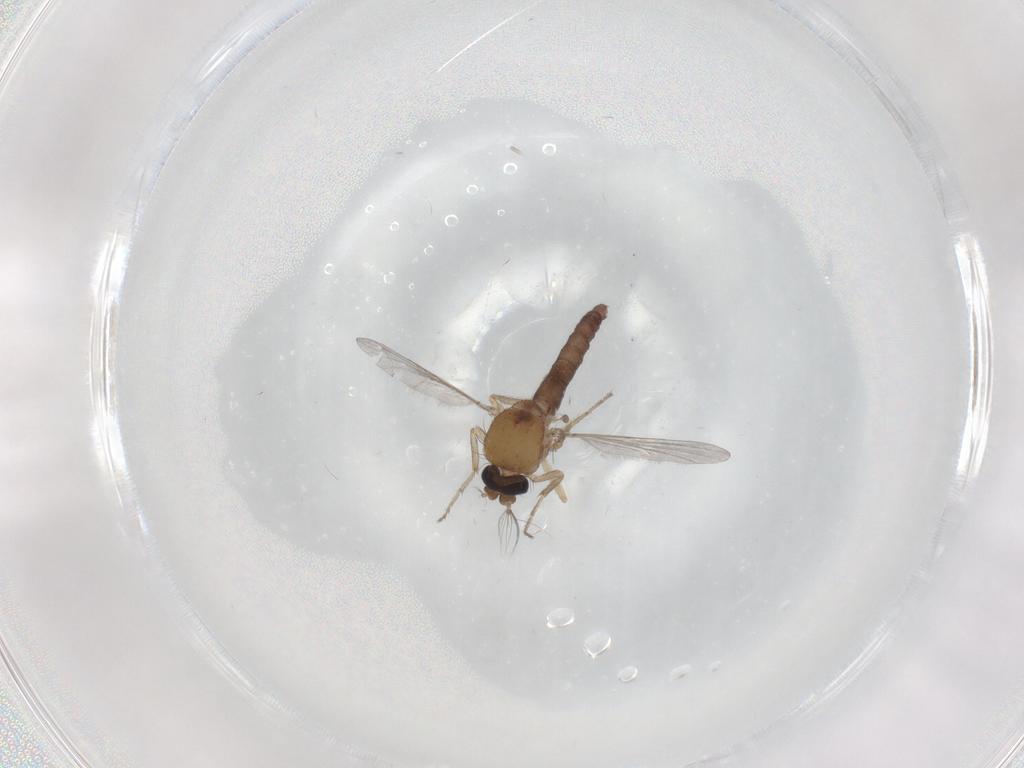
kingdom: Animalia
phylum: Arthropoda
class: Insecta
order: Diptera
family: Ceratopogonidae
